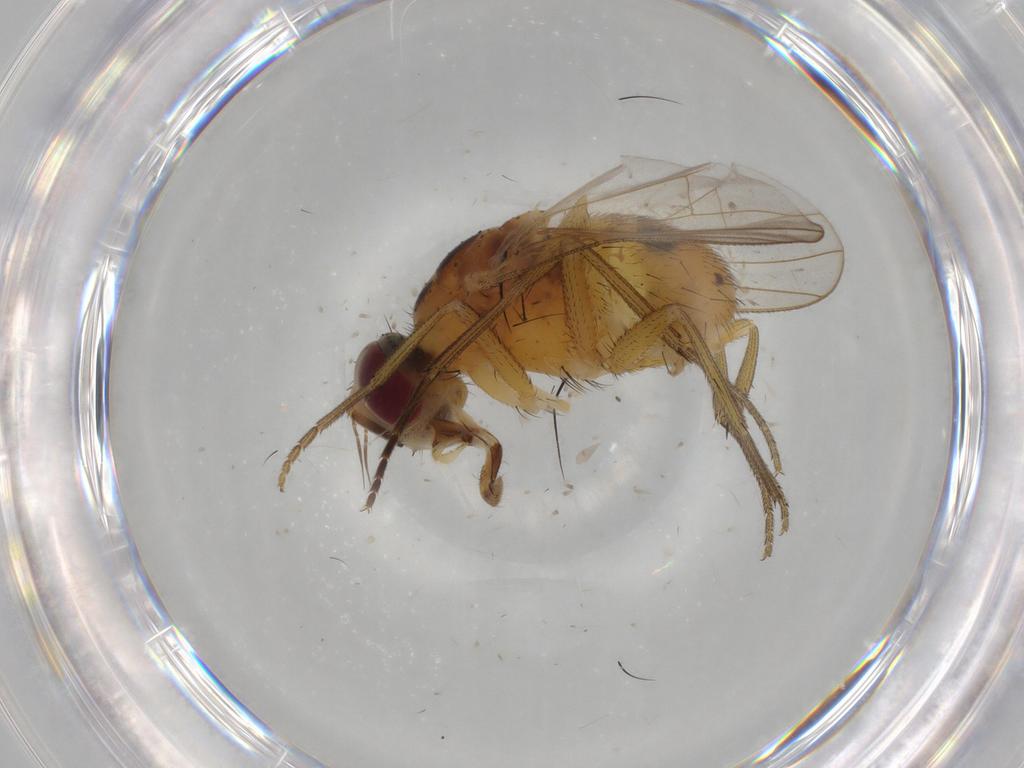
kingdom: Animalia
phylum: Arthropoda
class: Insecta
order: Diptera
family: Muscidae
